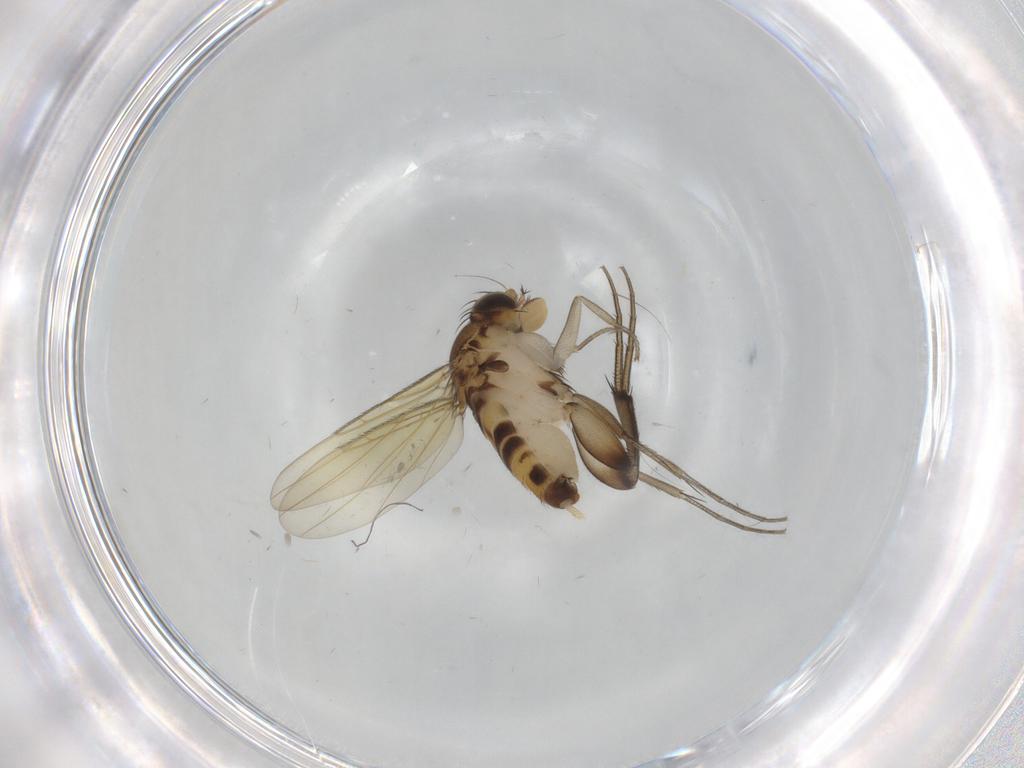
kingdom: Animalia
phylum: Arthropoda
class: Insecta
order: Diptera
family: Phoridae
